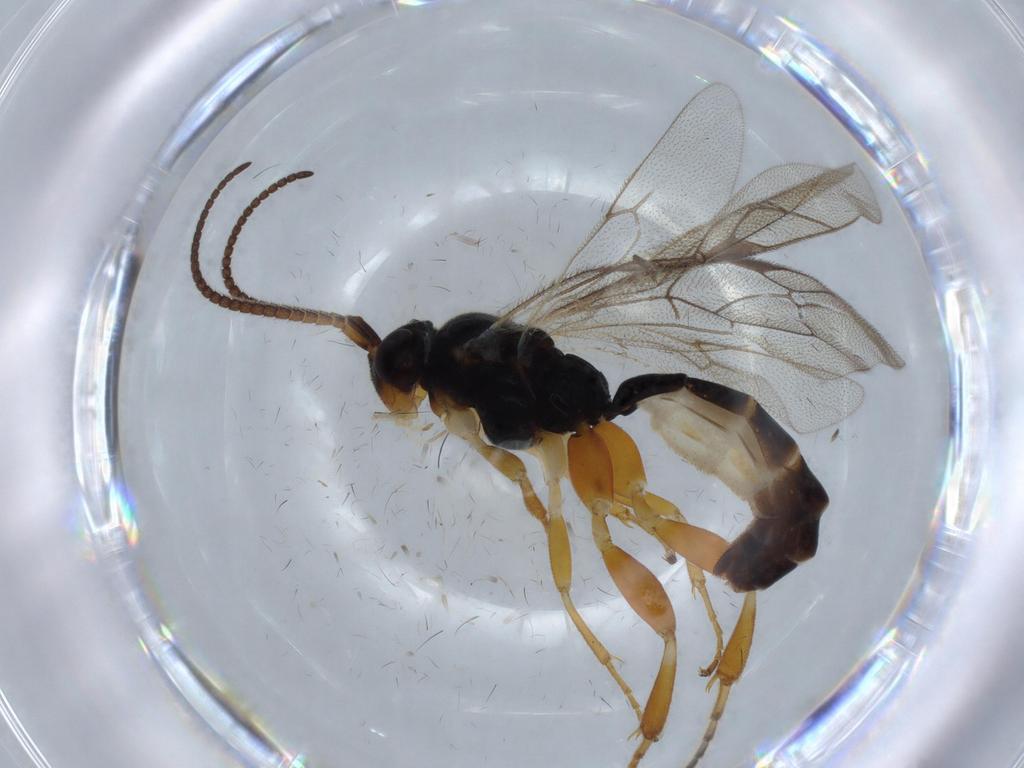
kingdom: Animalia
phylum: Arthropoda
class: Insecta
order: Hymenoptera
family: Ichneumonidae
